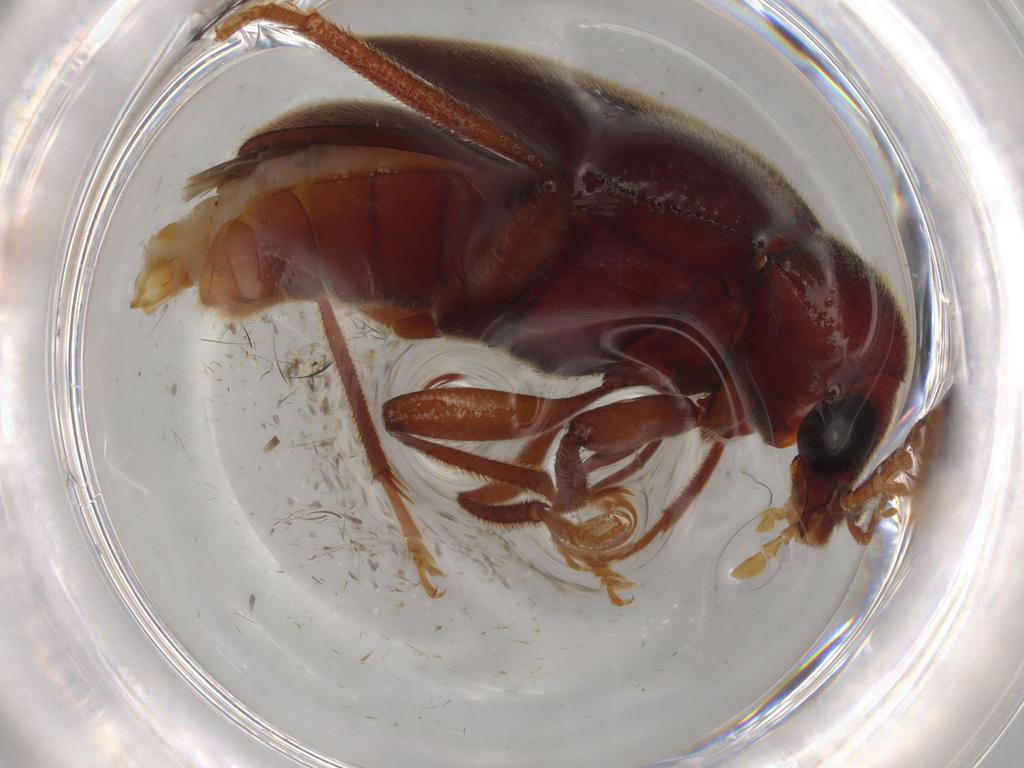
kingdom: Animalia
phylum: Arthropoda
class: Insecta
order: Coleoptera
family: Ptilodactylidae
